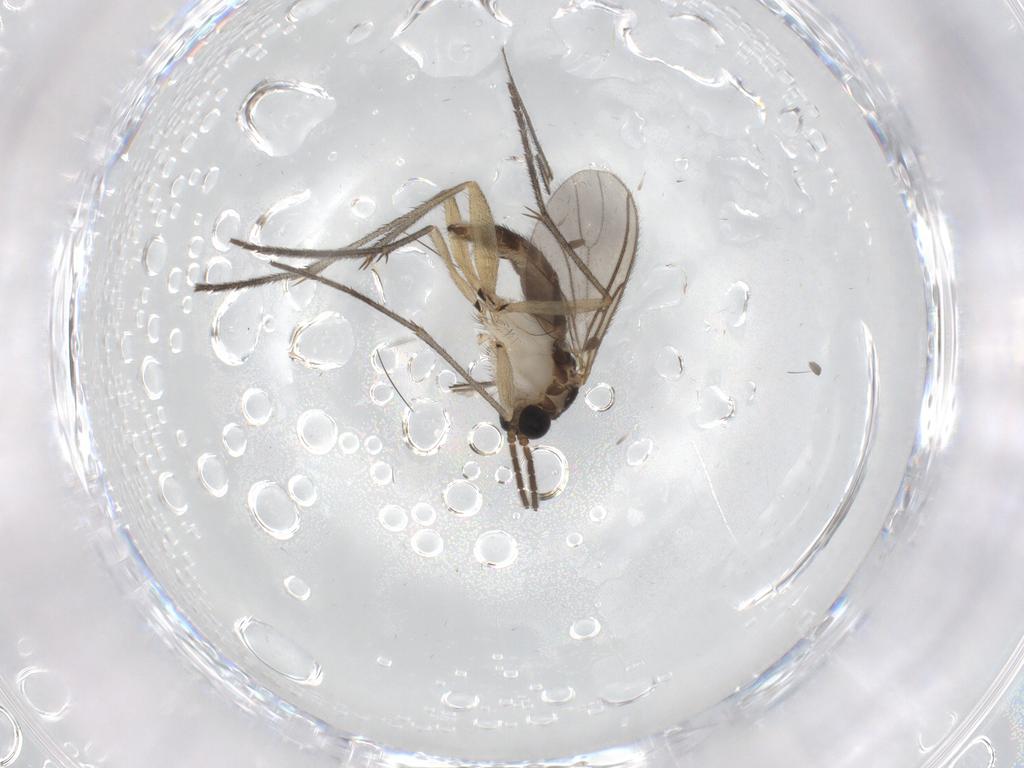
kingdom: Animalia
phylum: Arthropoda
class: Insecta
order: Diptera
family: Sciaridae
